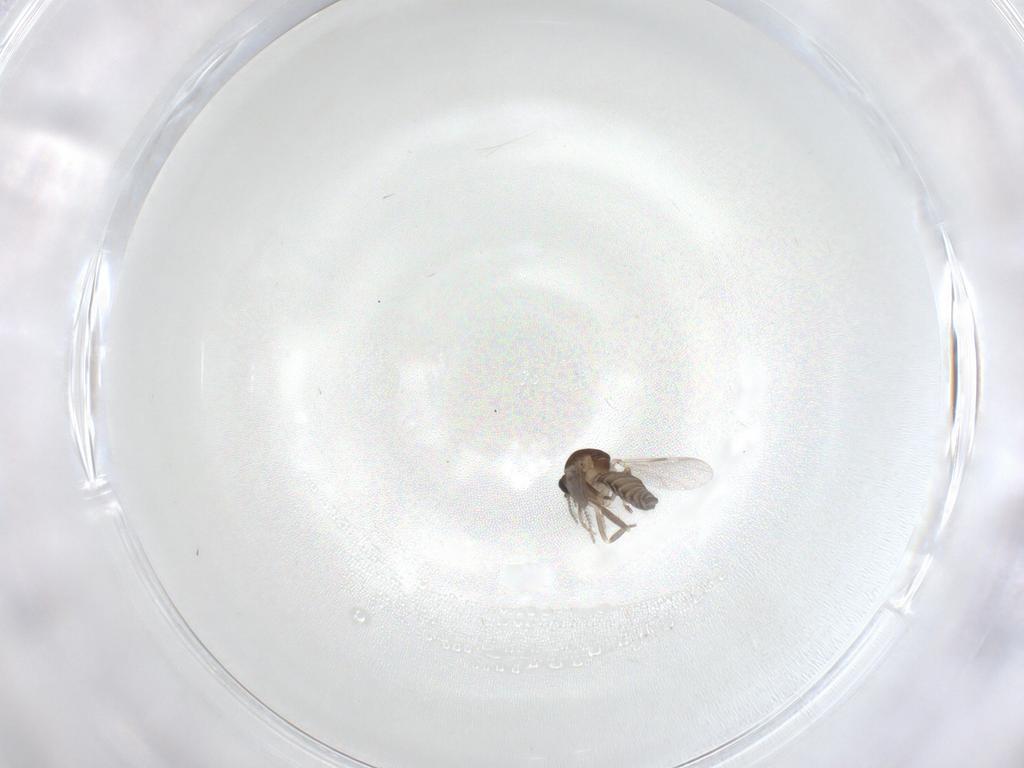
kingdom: Animalia
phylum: Arthropoda
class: Insecta
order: Diptera
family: Ceratopogonidae
